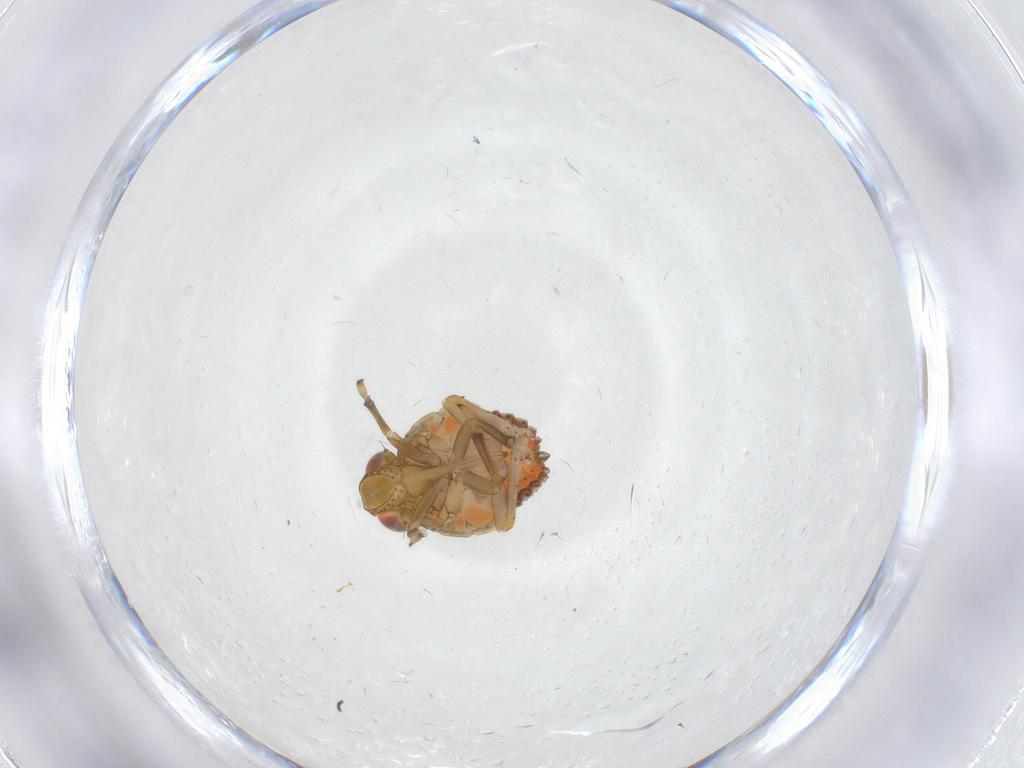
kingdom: Animalia
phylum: Arthropoda
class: Insecta
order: Hemiptera
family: Issidae
